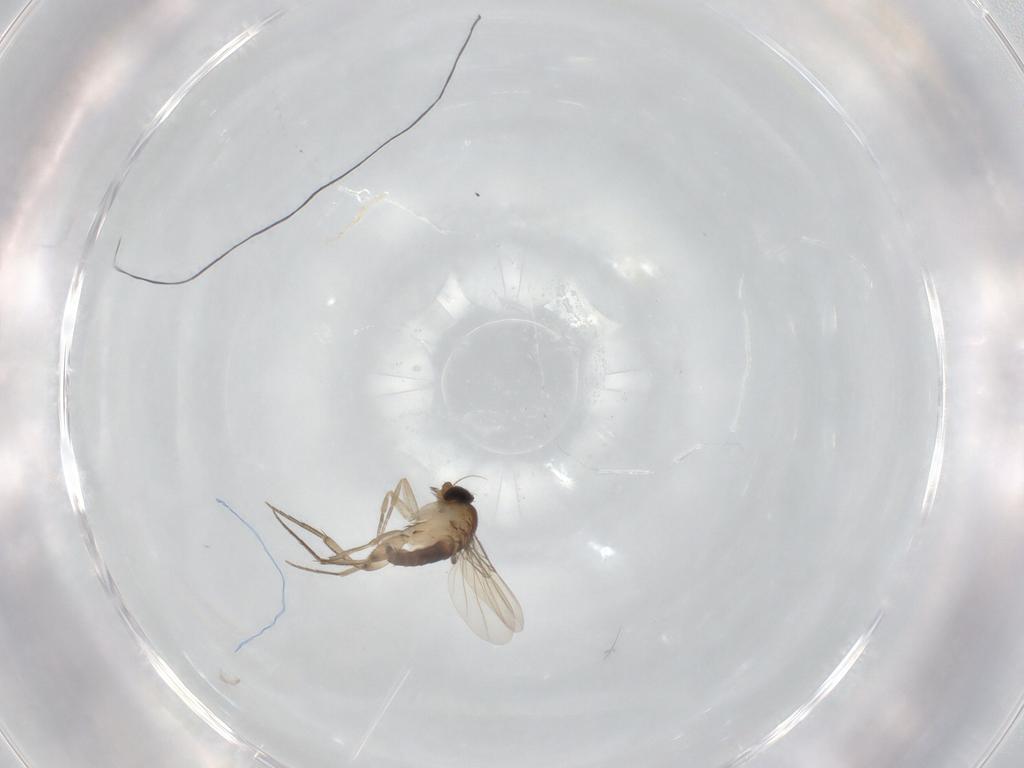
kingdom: Animalia
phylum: Arthropoda
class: Insecta
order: Diptera
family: Phoridae
